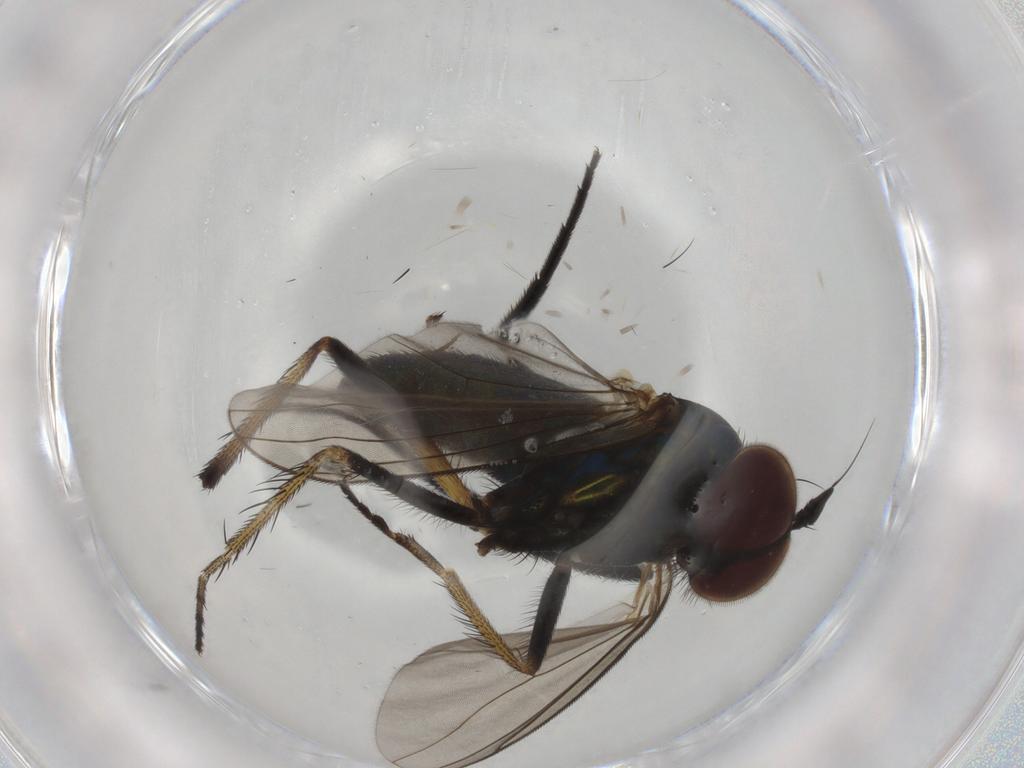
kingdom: Animalia
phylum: Arthropoda
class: Insecta
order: Diptera
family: Dolichopodidae
